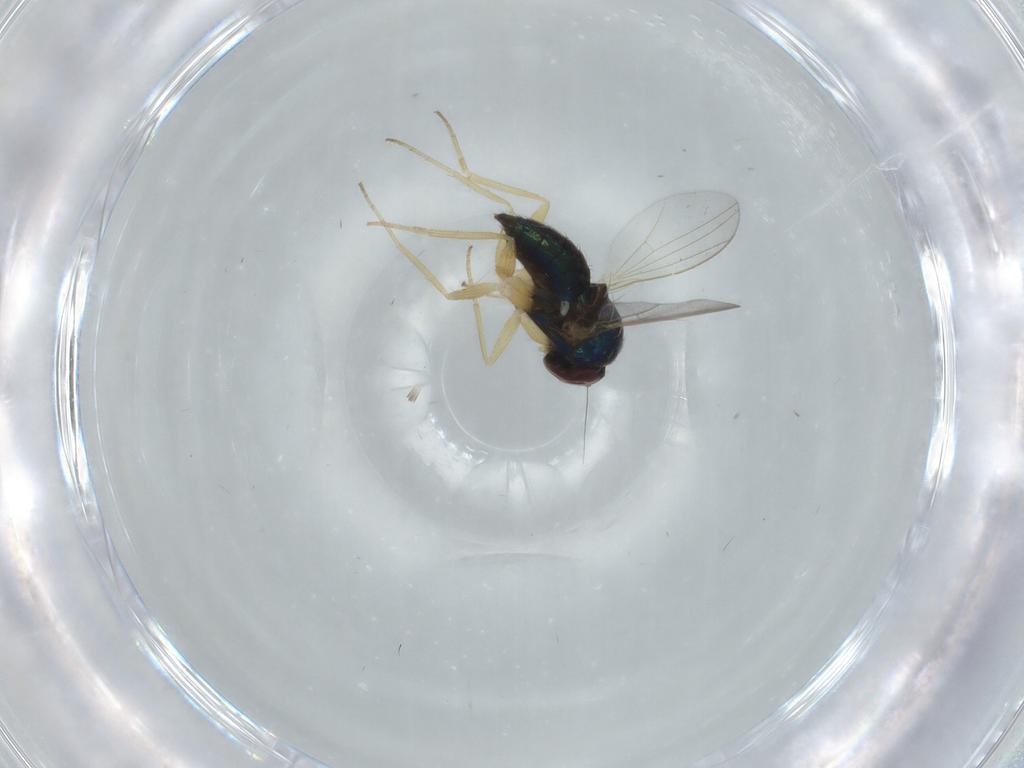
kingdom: Animalia
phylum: Arthropoda
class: Insecta
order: Diptera
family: Dolichopodidae
